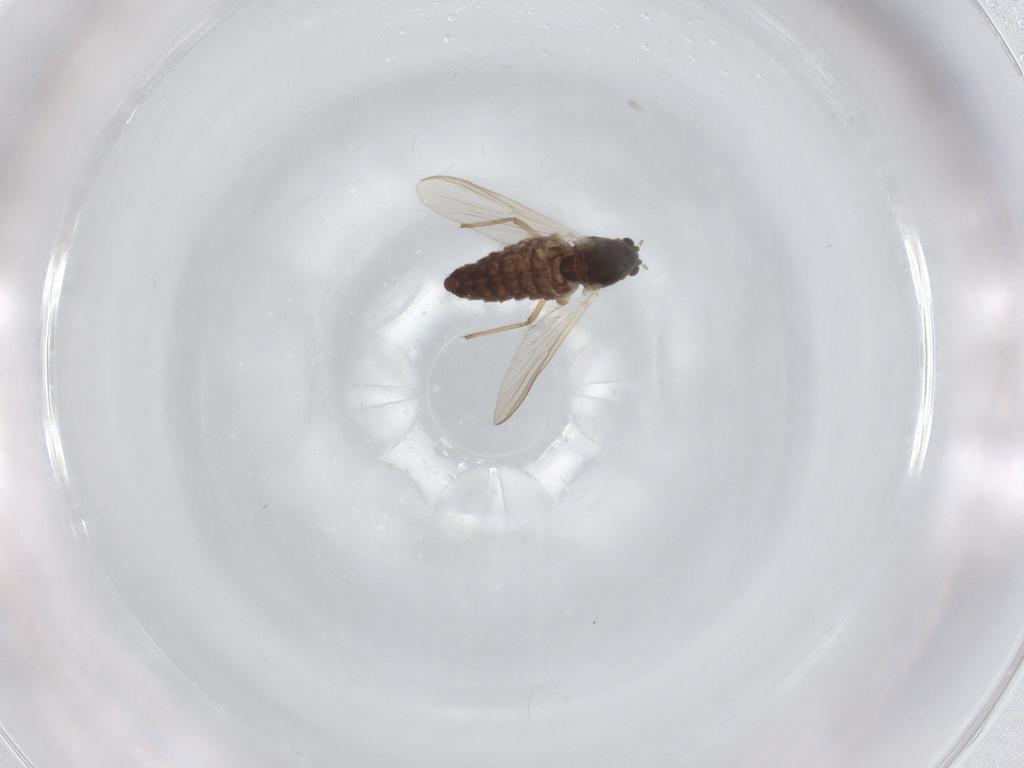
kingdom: Animalia
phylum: Arthropoda
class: Insecta
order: Diptera
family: Chironomidae
